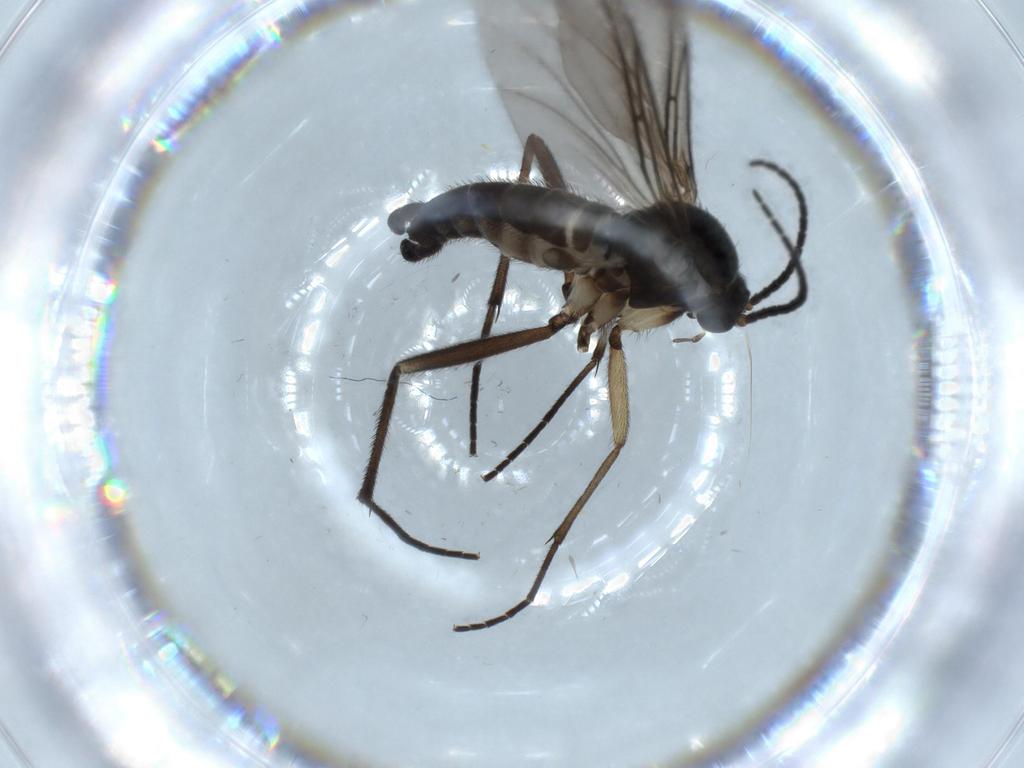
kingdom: Animalia
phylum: Arthropoda
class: Insecta
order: Diptera
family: Sciaridae
